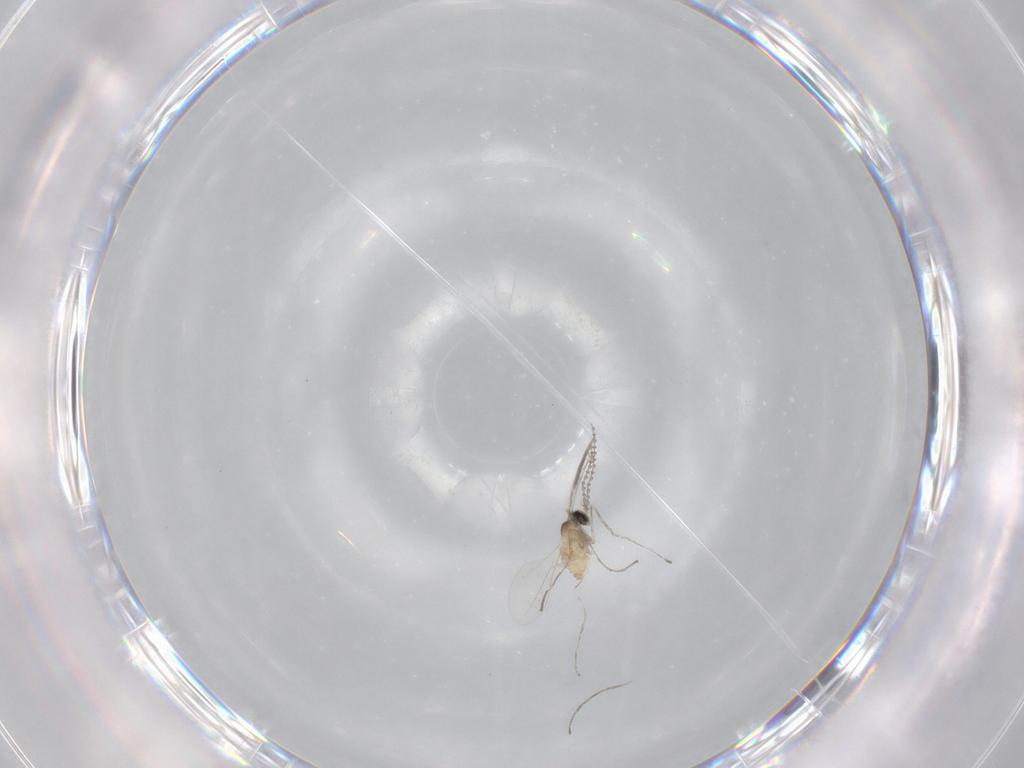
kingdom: Animalia
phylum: Arthropoda
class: Insecta
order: Diptera
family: Cecidomyiidae
